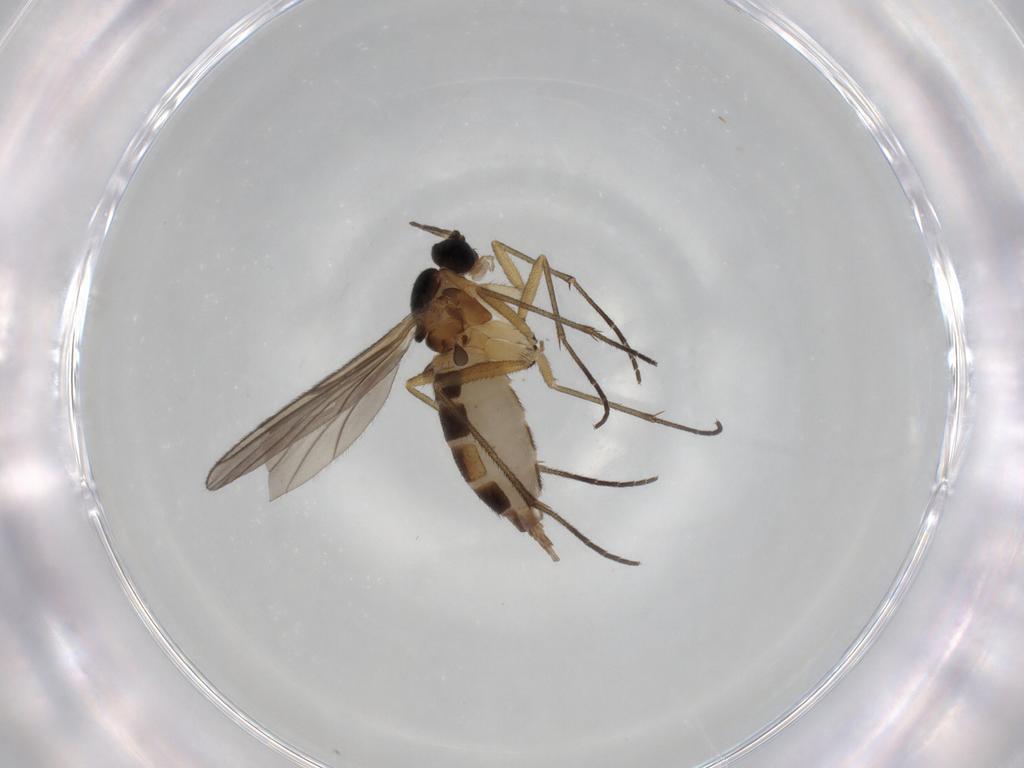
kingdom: Animalia
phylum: Arthropoda
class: Insecta
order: Diptera
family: Sciaridae
